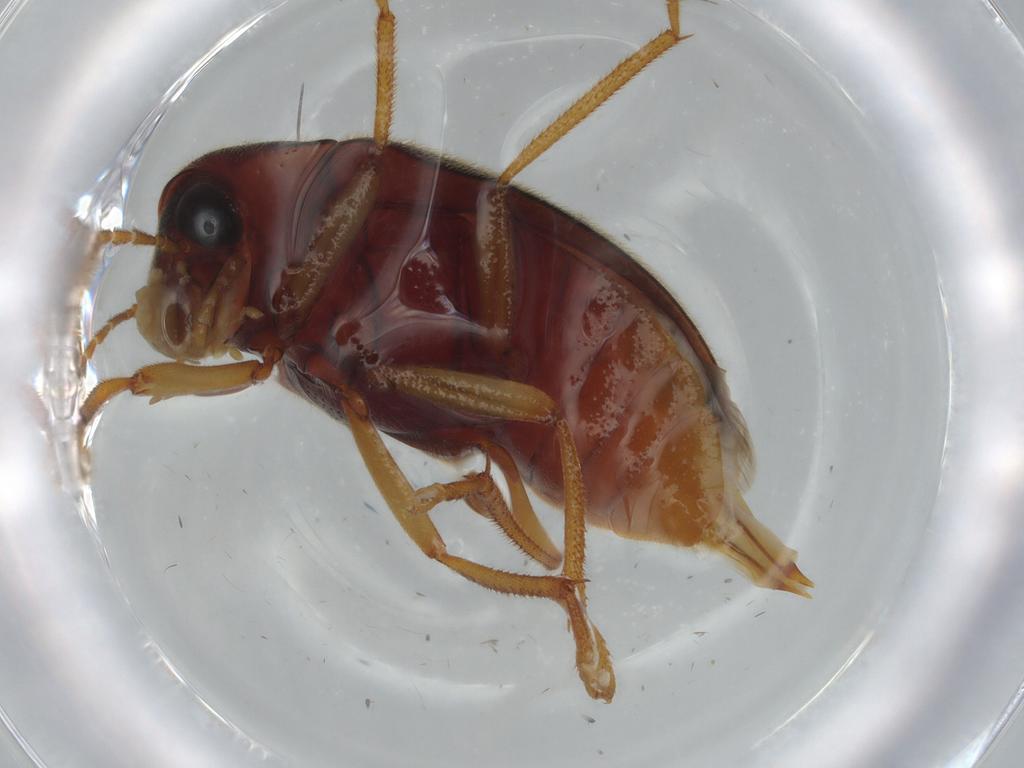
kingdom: Animalia
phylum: Arthropoda
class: Insecta
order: Coleoptera
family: Ptilodactylidae
